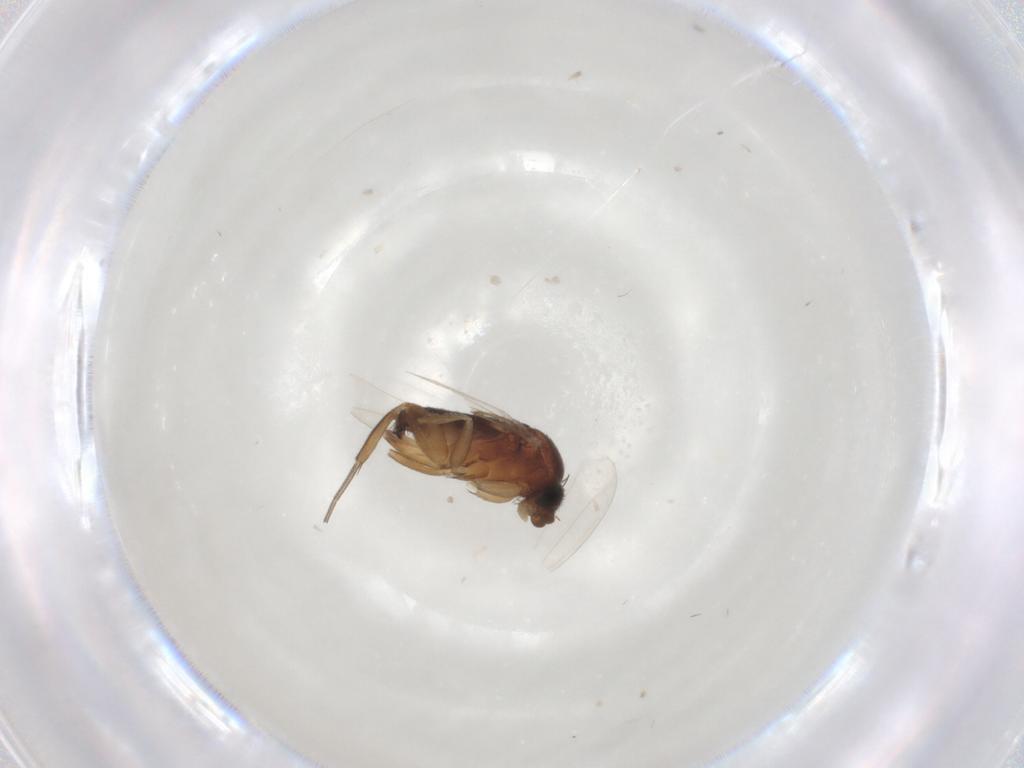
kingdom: Animalia
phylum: Arthropoda
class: Insecta
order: Diptera
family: Phoridae
